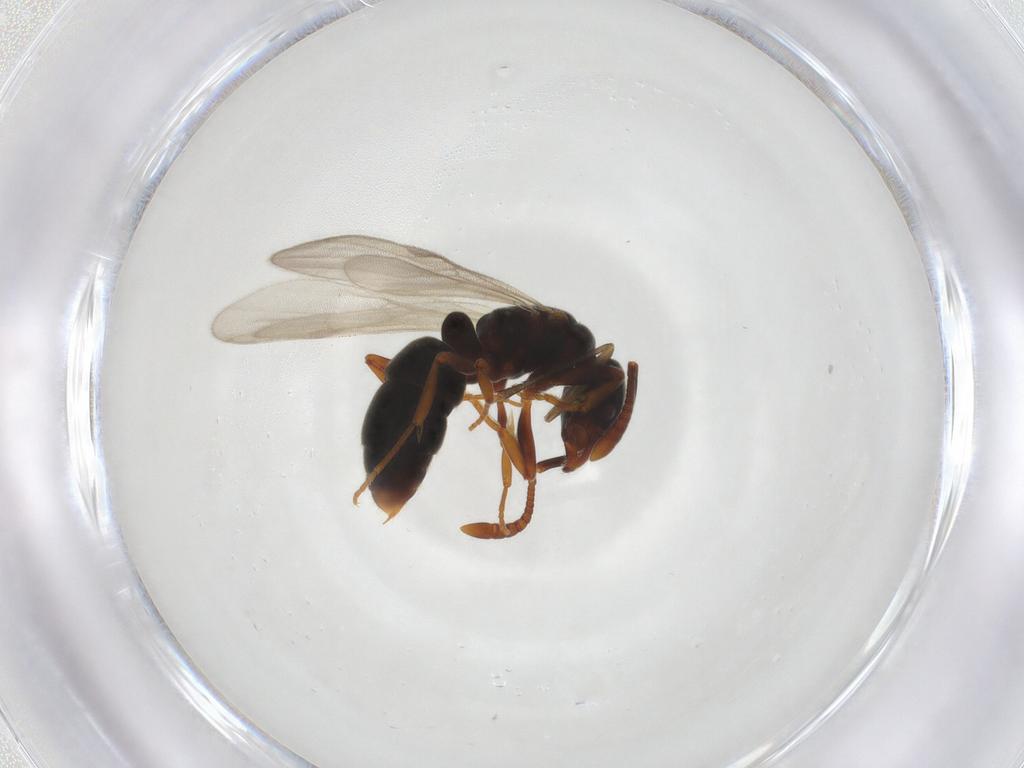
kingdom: Animalia
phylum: Arthropoda
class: Insecta
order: Hymenoptera
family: Formicidae
